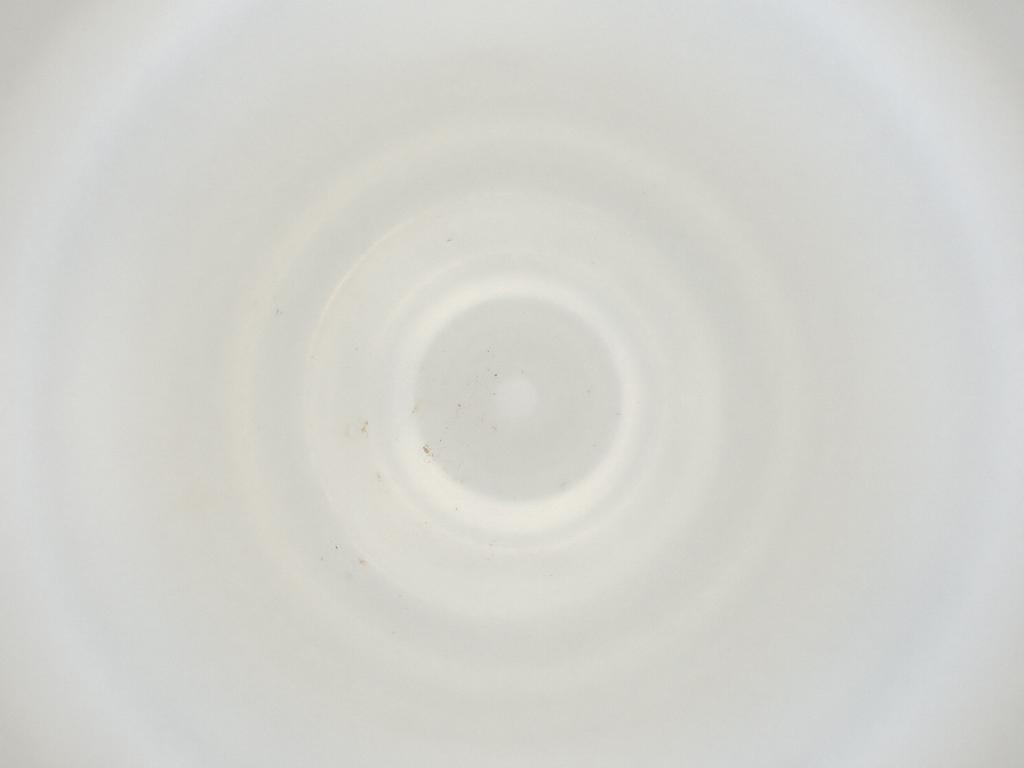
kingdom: Animalia
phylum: Arthropoda
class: Insecta
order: Diptera
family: Cecidomyiidae
